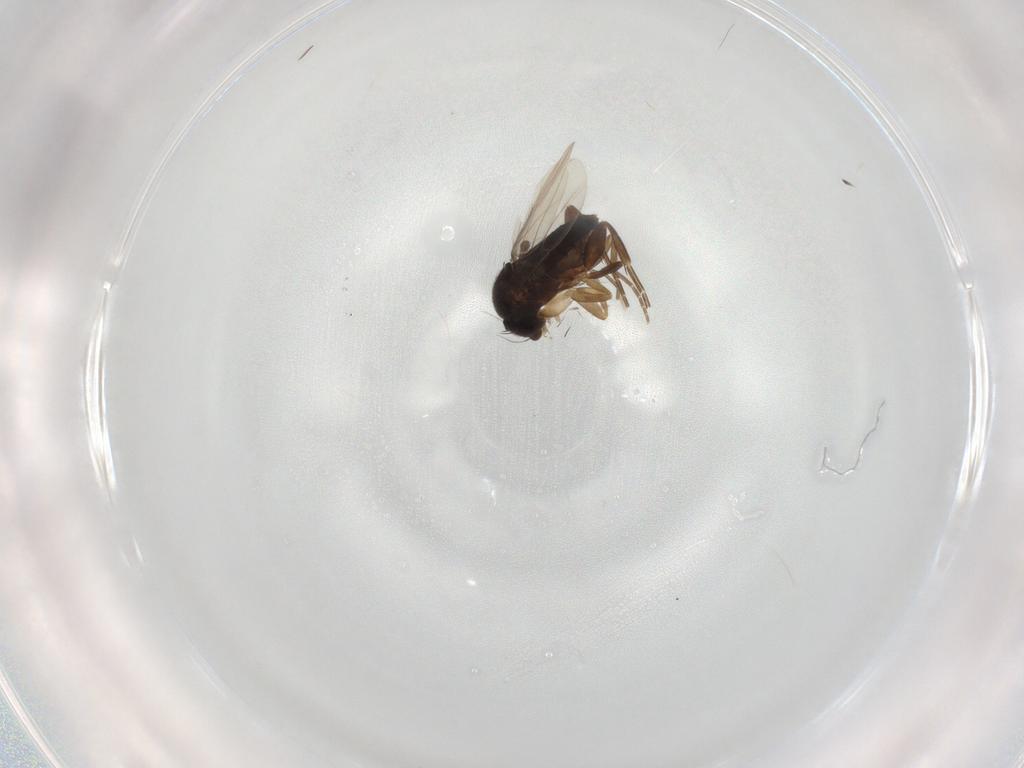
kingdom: Animalia
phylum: Arthropoda
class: Insecta
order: Diptera
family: Phoridae
